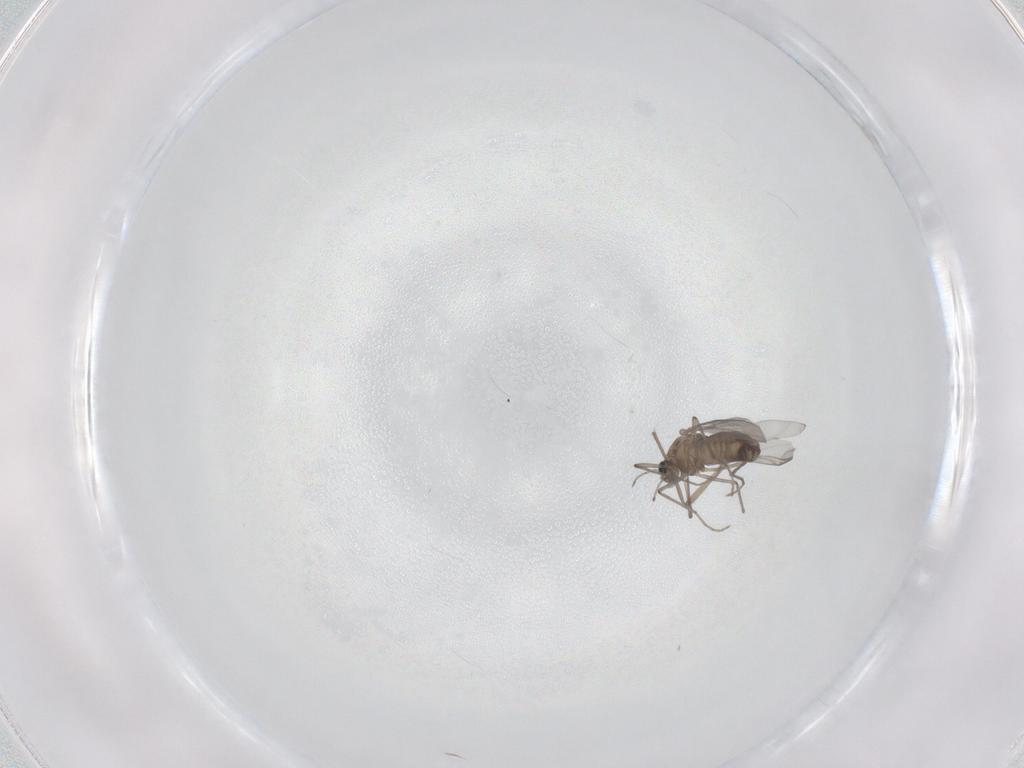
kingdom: Animalia
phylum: Arthropoda
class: Insecta
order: Diptera
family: Chironomidae
